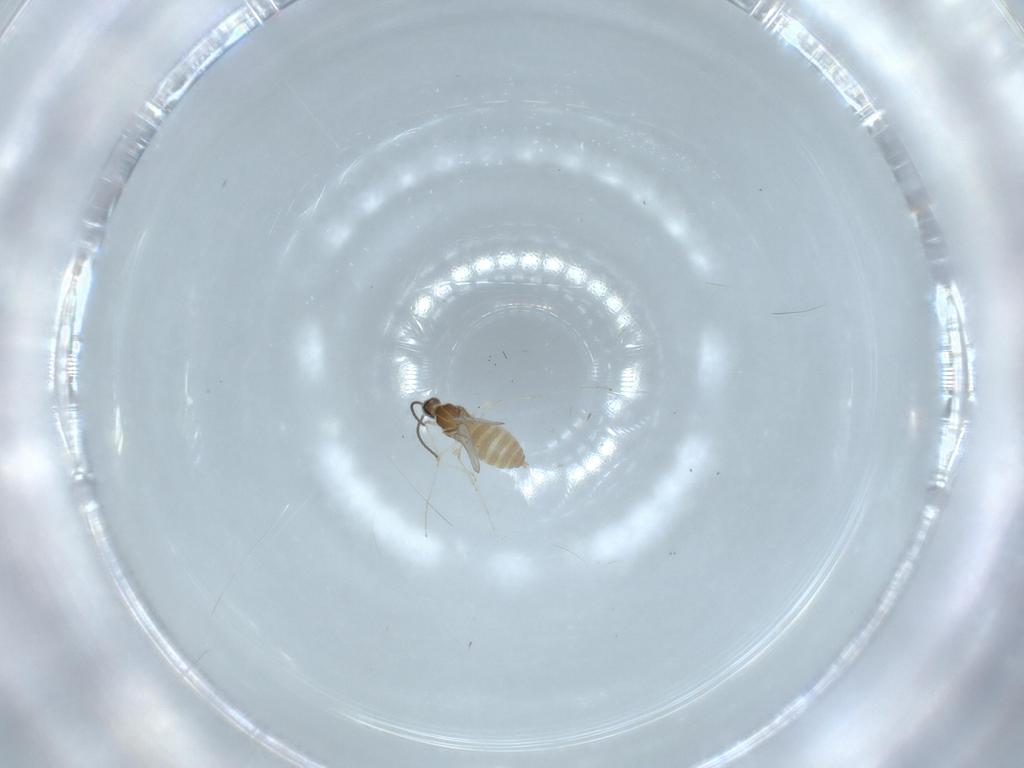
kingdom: Animalia
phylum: Arthropoda
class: Insecta
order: Diptera
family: Cecidomyiidae
